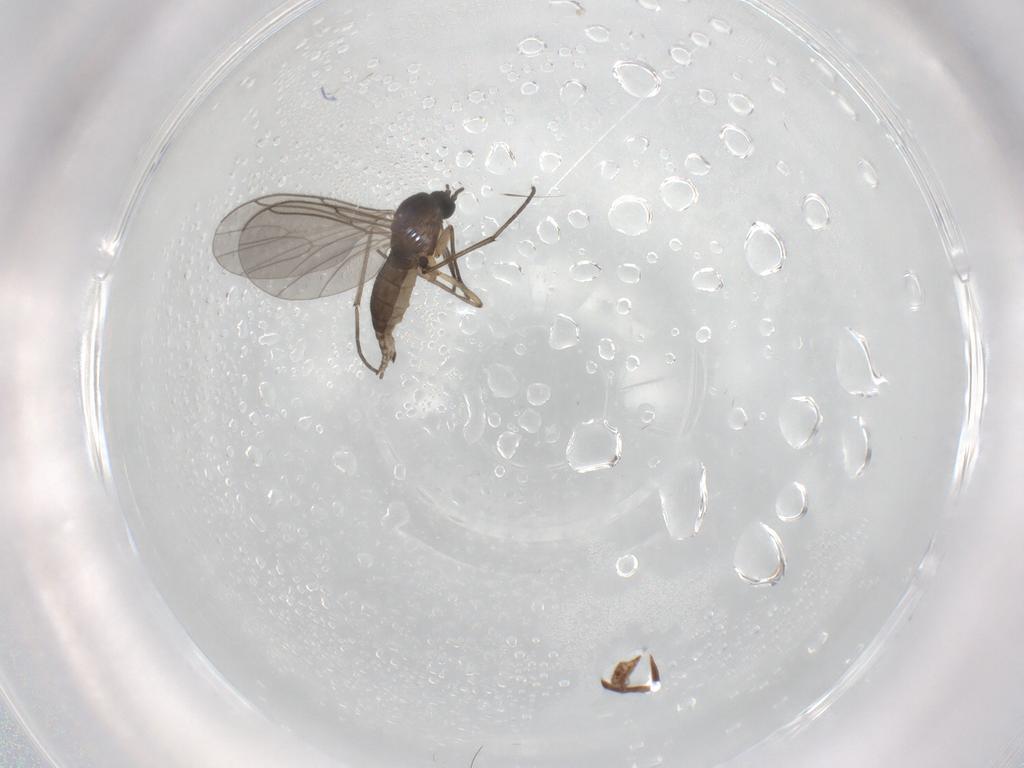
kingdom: Animalia
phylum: Arthropoda
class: Insecta
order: Diptera
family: Sciaridae
